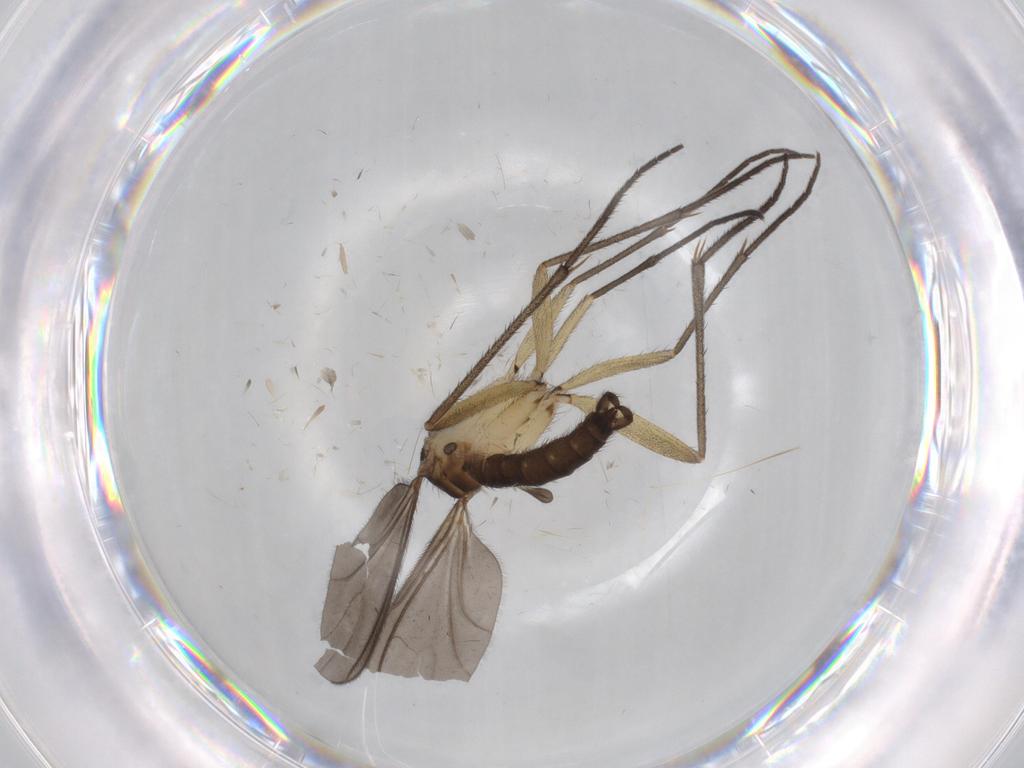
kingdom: Animalia
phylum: Arthropoda
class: Insecta
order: Diptera
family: Sciaridae
